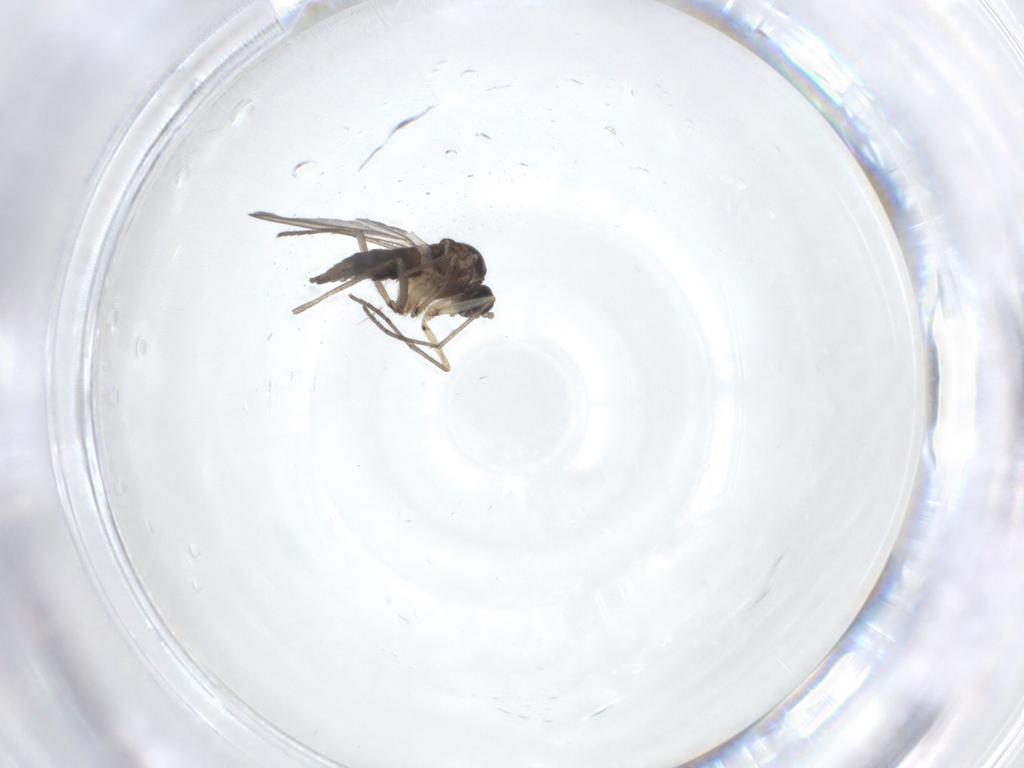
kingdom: Animalia
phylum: Arthropoda
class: Insecta
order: Diptera
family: Sciaridae
